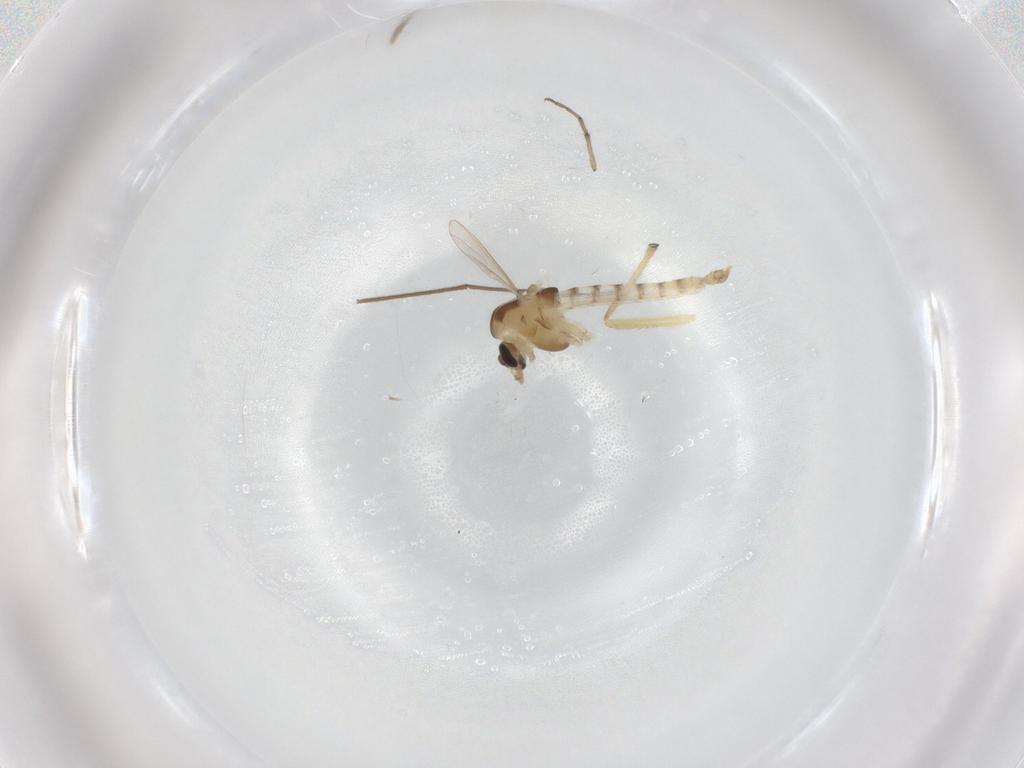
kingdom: Animalia
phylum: Arthropoda
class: Insecta
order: Diptera
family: Chironomidae
